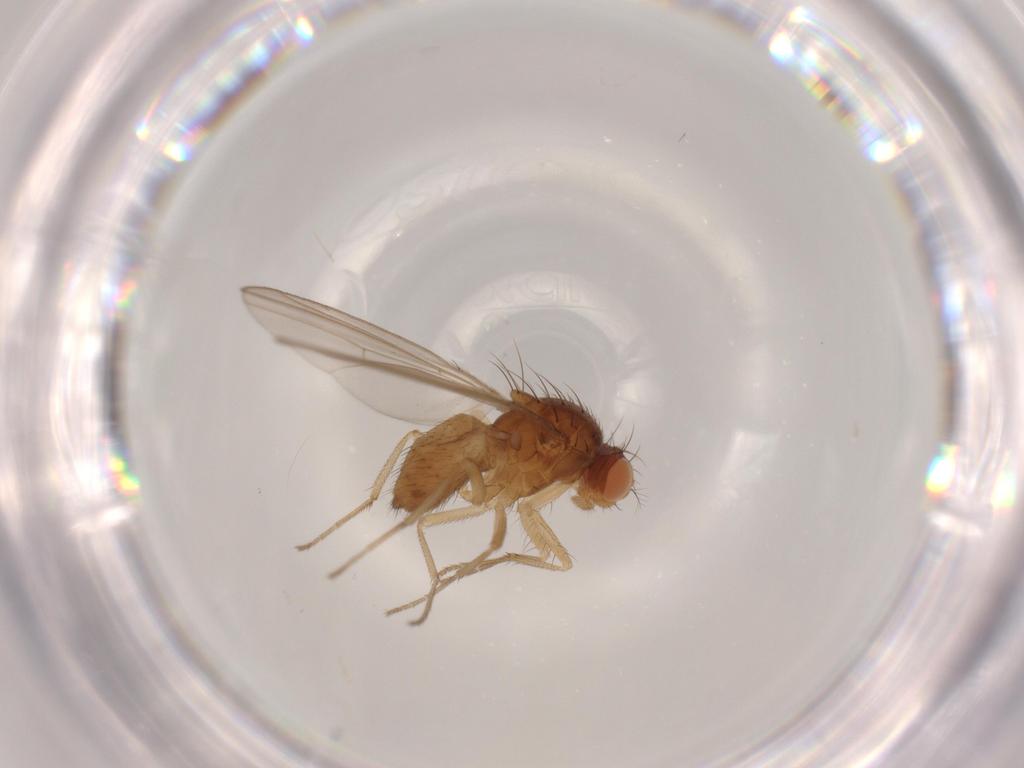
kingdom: Animalia
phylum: Arthropoda
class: Insecta
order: Diptera
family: Drosophilidae
